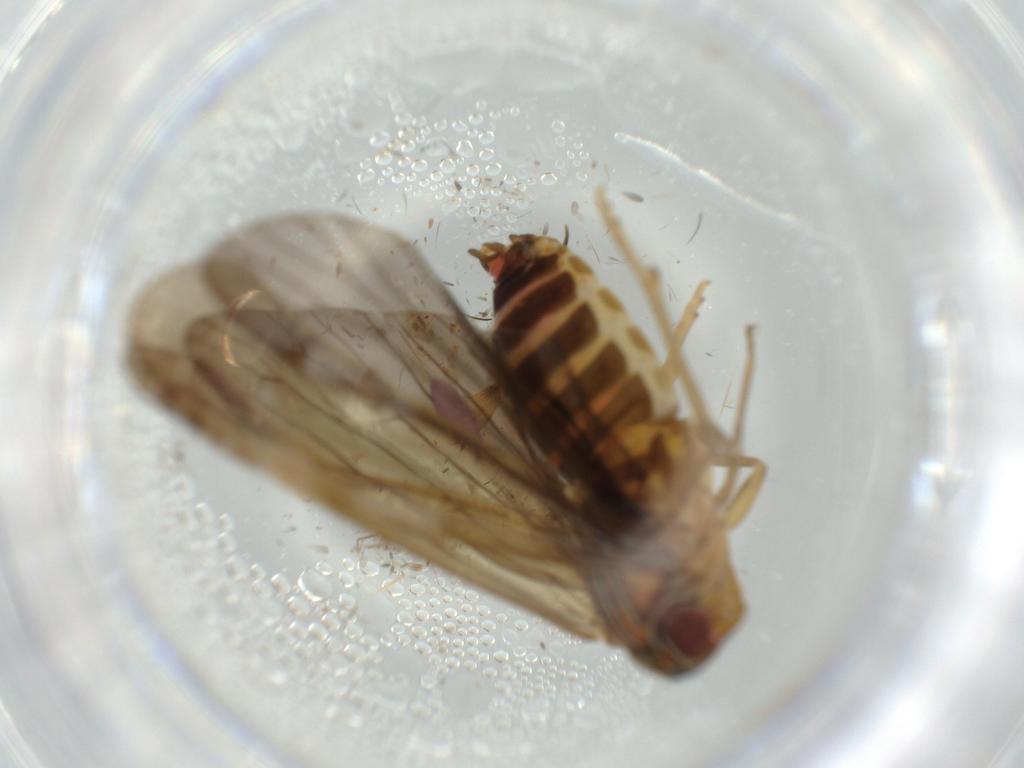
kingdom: Animalia
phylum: Arthropoda
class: Insecta
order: Hemiptera
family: Achilidae
